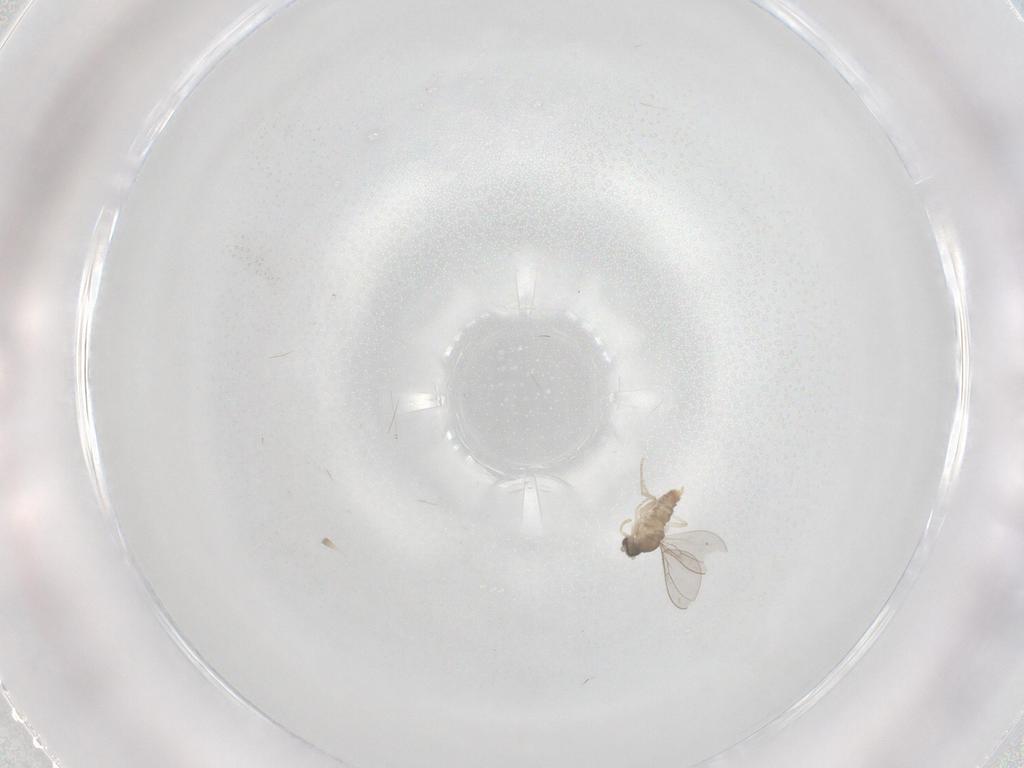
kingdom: Animalia
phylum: Arthropoda
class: Insecta
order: Diptera
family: Cecidomyiidae
